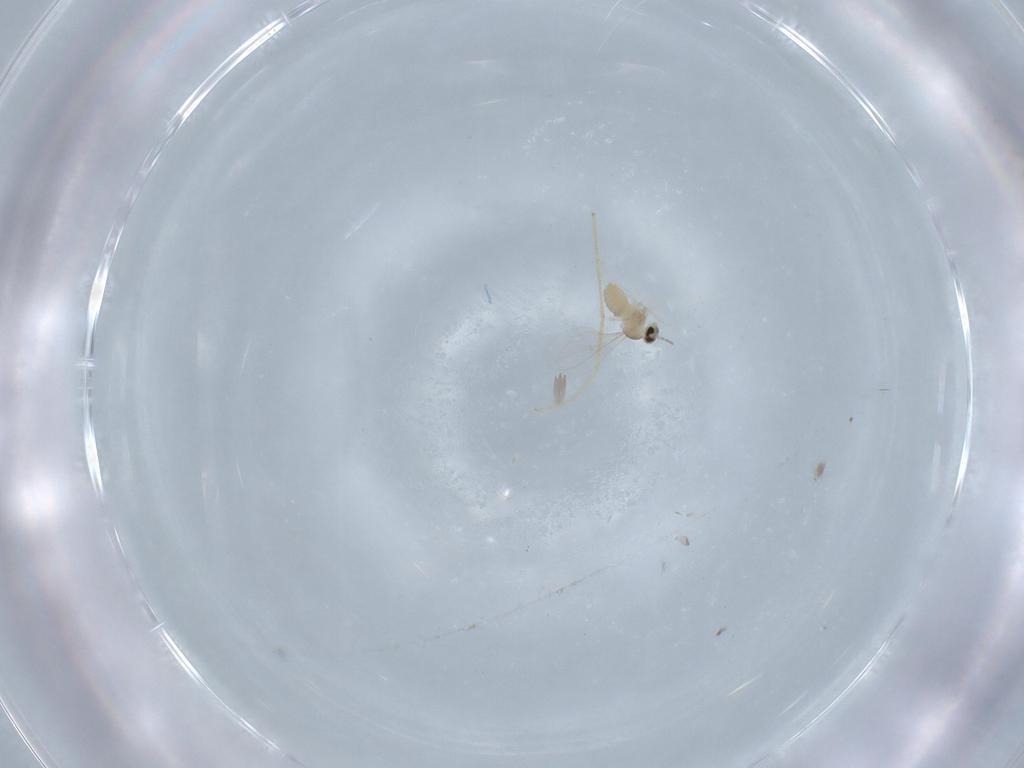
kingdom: Animalia
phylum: Arthropoda
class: Insecta
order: Diptera
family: Cecidomyiidae
